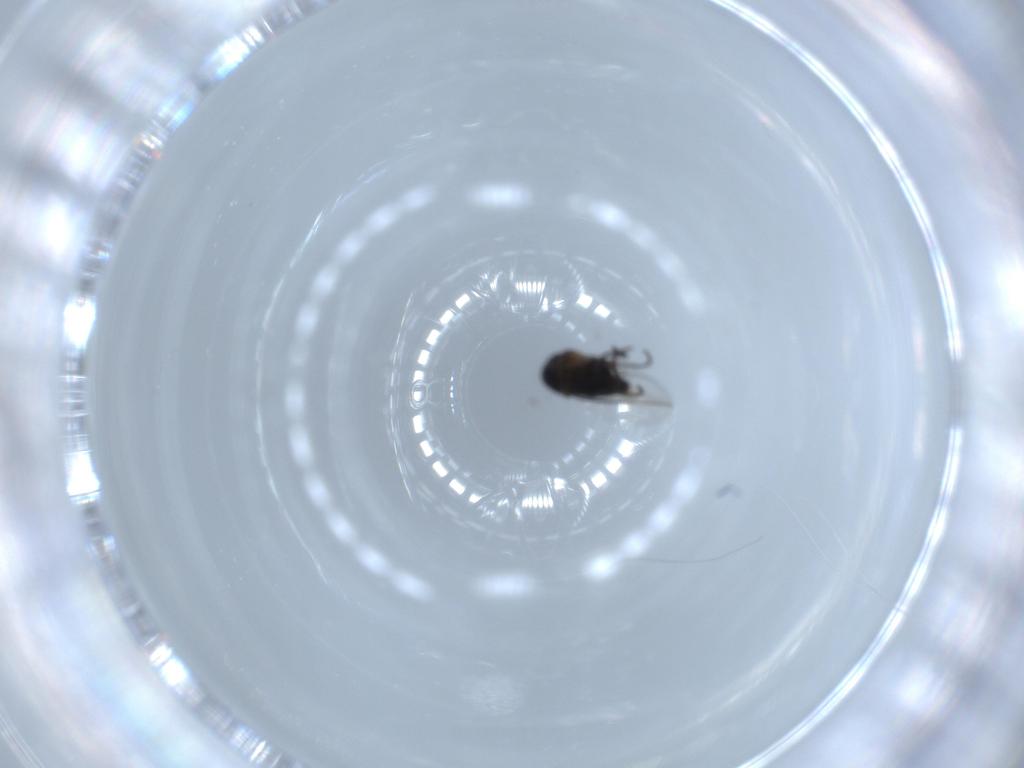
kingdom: Animalia
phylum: Arthropoda
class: Insecta
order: Diptera
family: Phoridae
